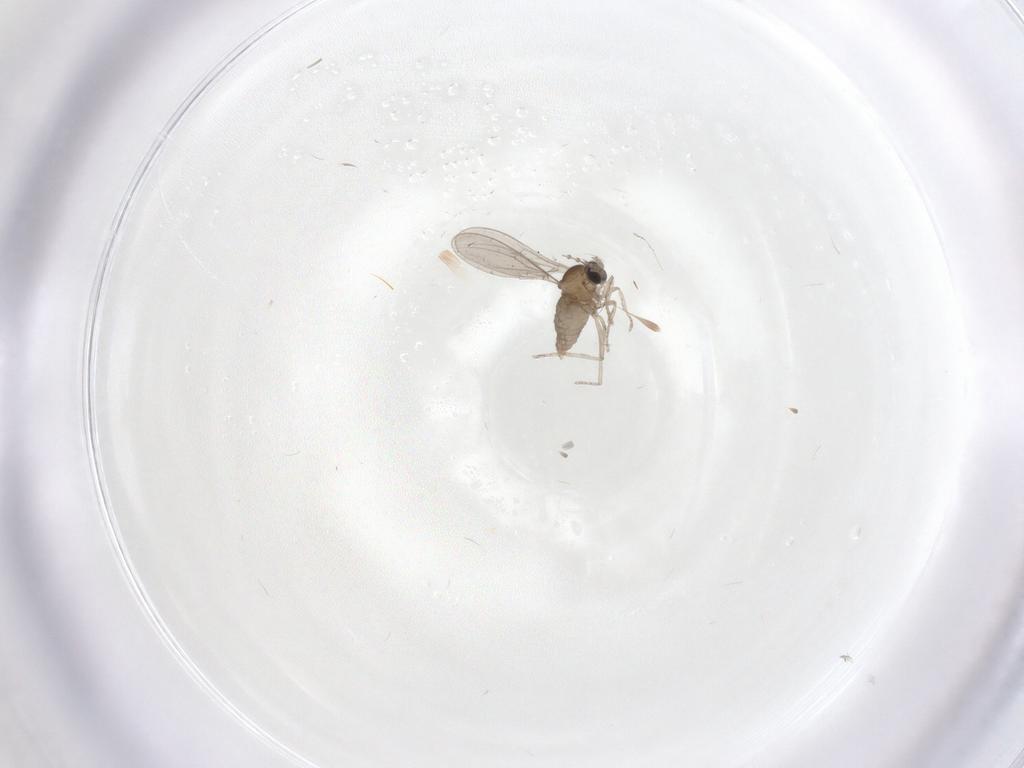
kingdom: Animalia
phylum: Arthropoda
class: Insecta
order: Diptera
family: Cecidomyiidae
